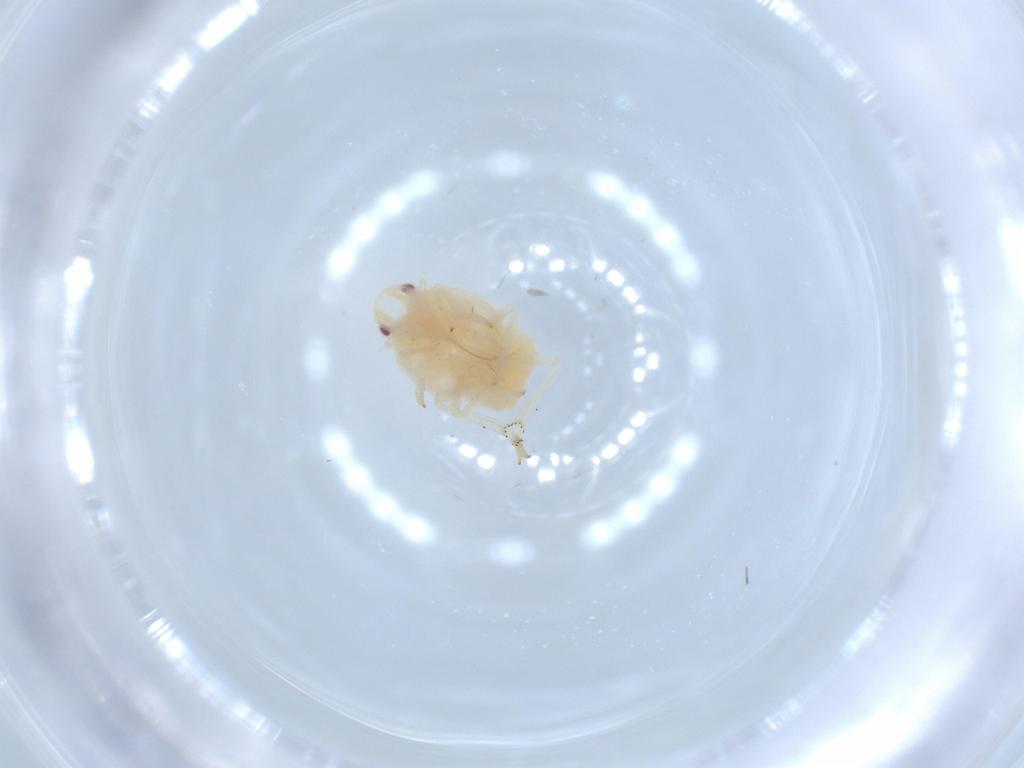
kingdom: Animalia
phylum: Arthropoda
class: Insecta
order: Hemiptera
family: Flatidae
